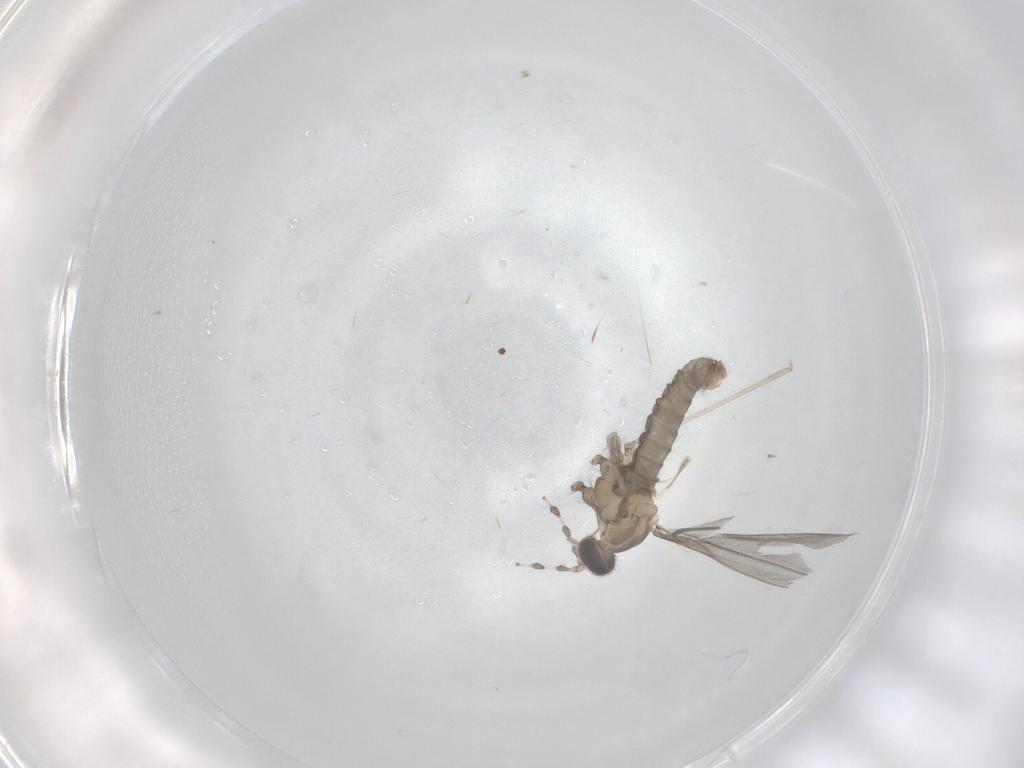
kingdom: Animalia
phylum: Arthropoda
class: Insecta
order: Diptera
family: Cecidomyiidae
